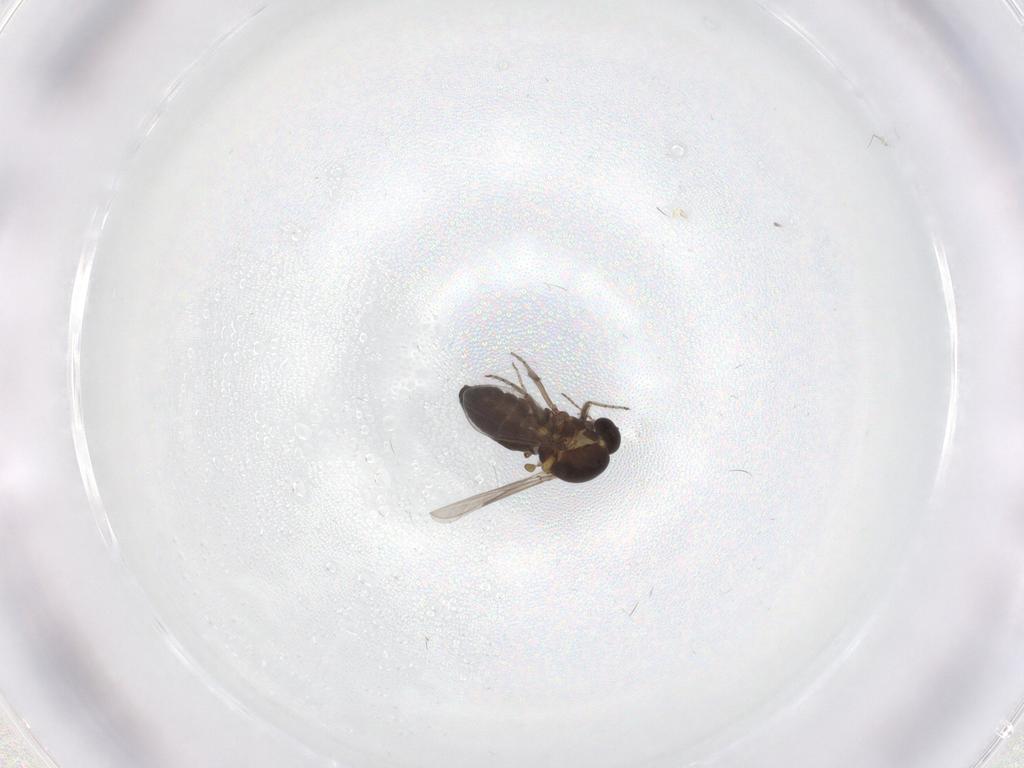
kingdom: Animalia
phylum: Arthropoda
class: Insecta
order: Diptera
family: Ceratopogonidae
